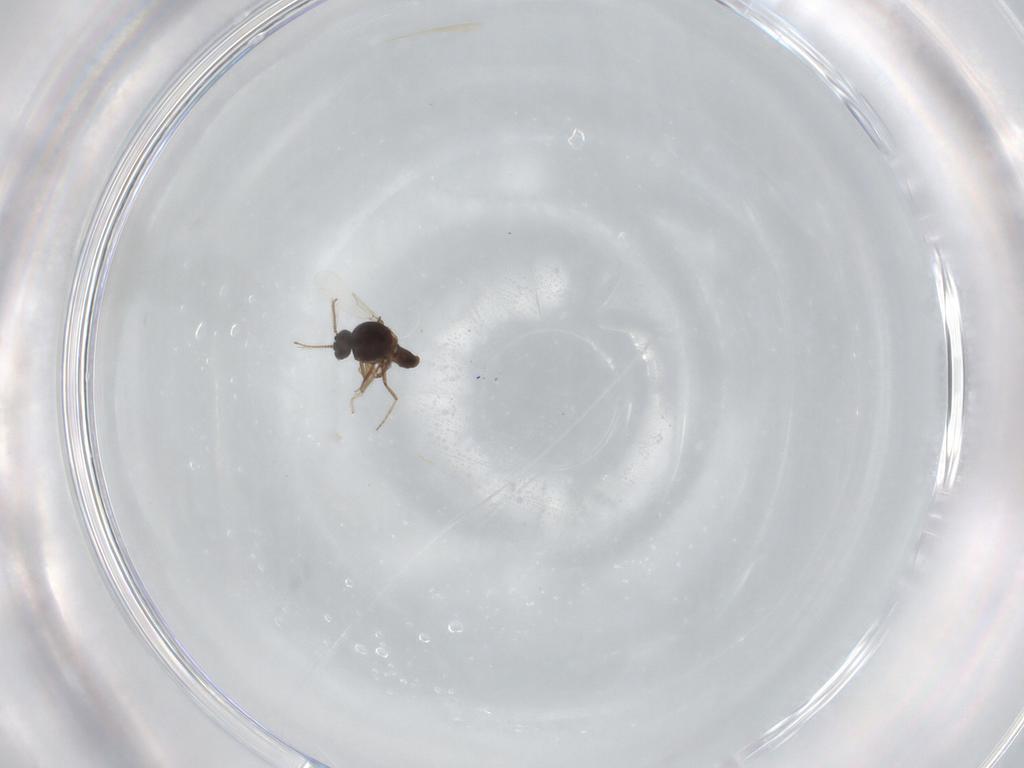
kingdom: Animalia
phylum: Arthropoda
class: Insecta
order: Diptera
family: Ceratopogonidae
